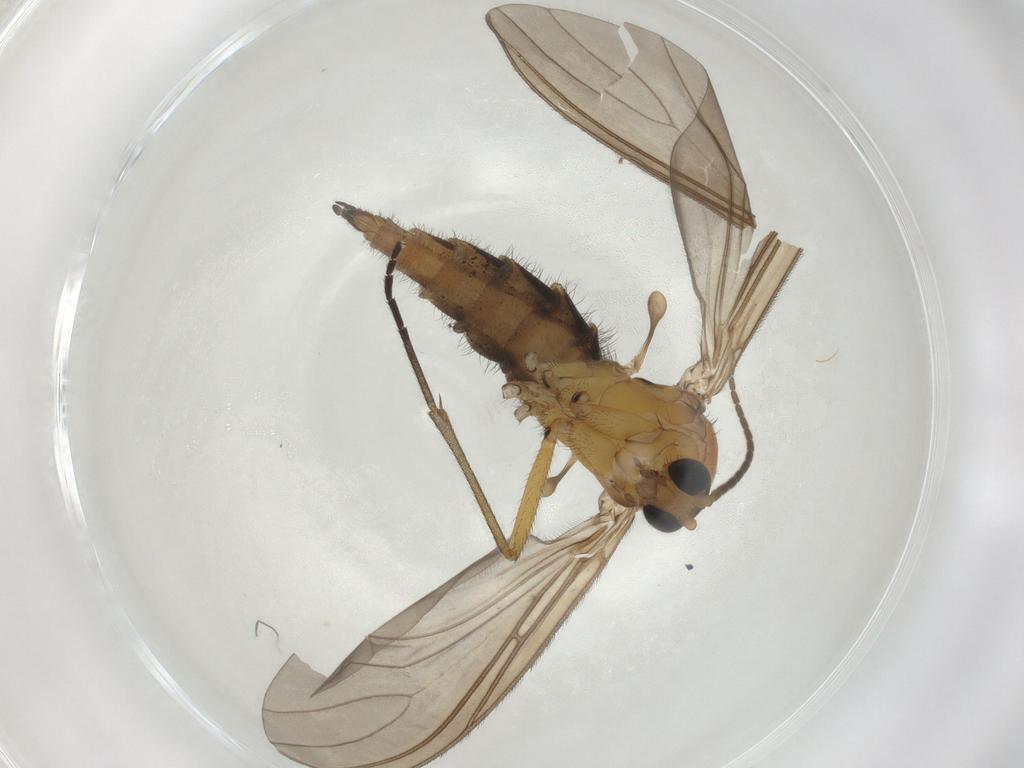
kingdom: Animalia
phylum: Arthropoda
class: Insecta
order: Diptera
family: Sciaridae
